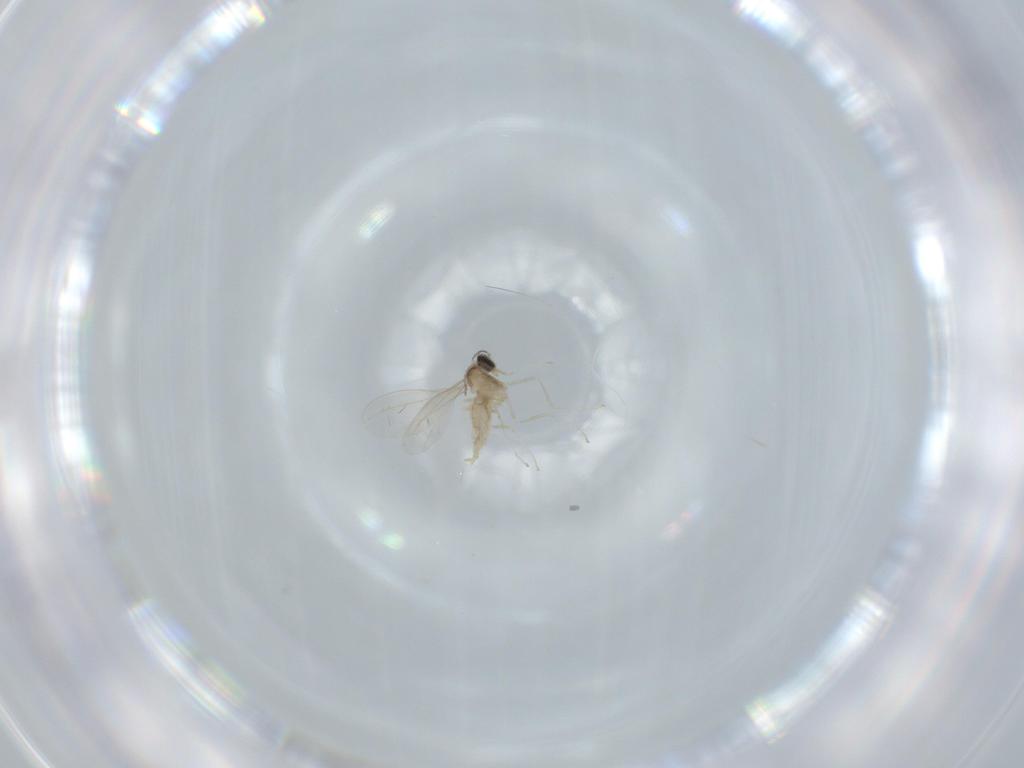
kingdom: Animalia
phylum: Arthropoda
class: Insecta
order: Diptera
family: Cecidomyiidae
